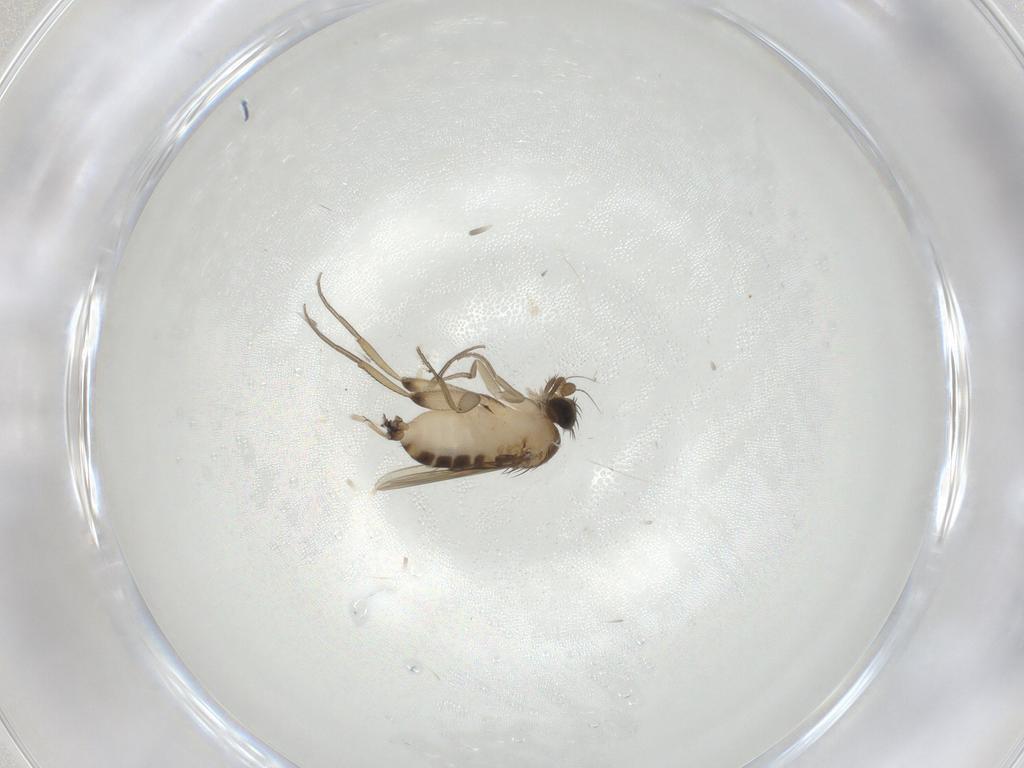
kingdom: Animalia
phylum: Arthropoda
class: Insecta
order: Diptera
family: Phoridae
